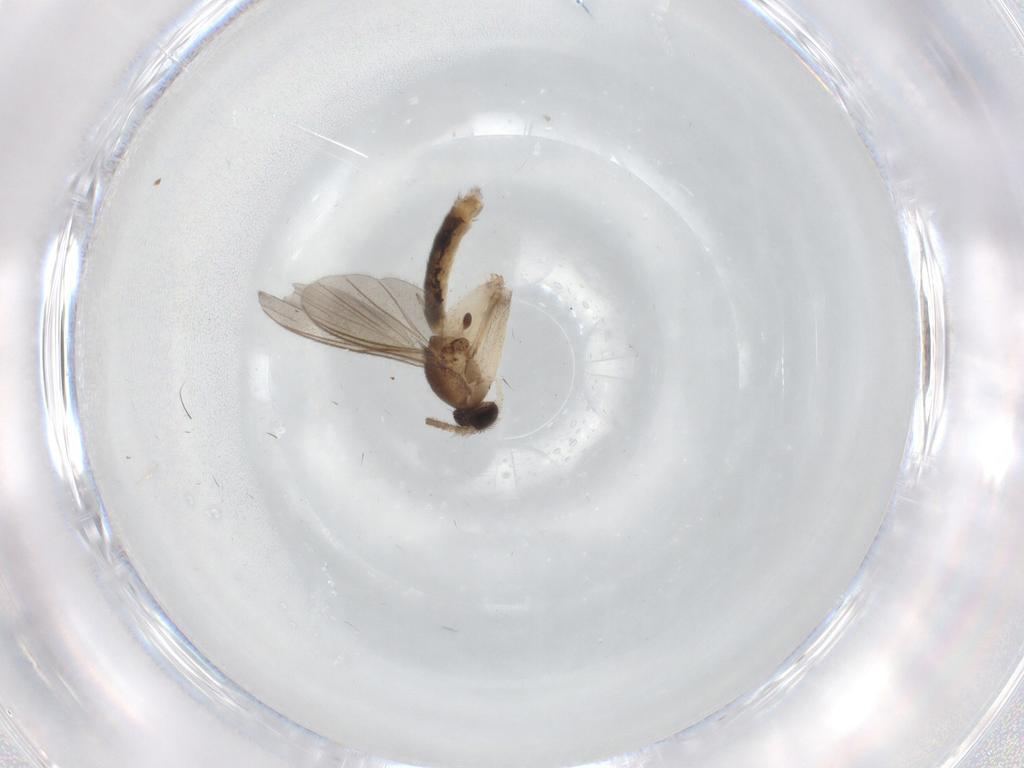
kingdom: Animalia
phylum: Arthropoda
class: Insecta
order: Diptera
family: Mycetophilidae
